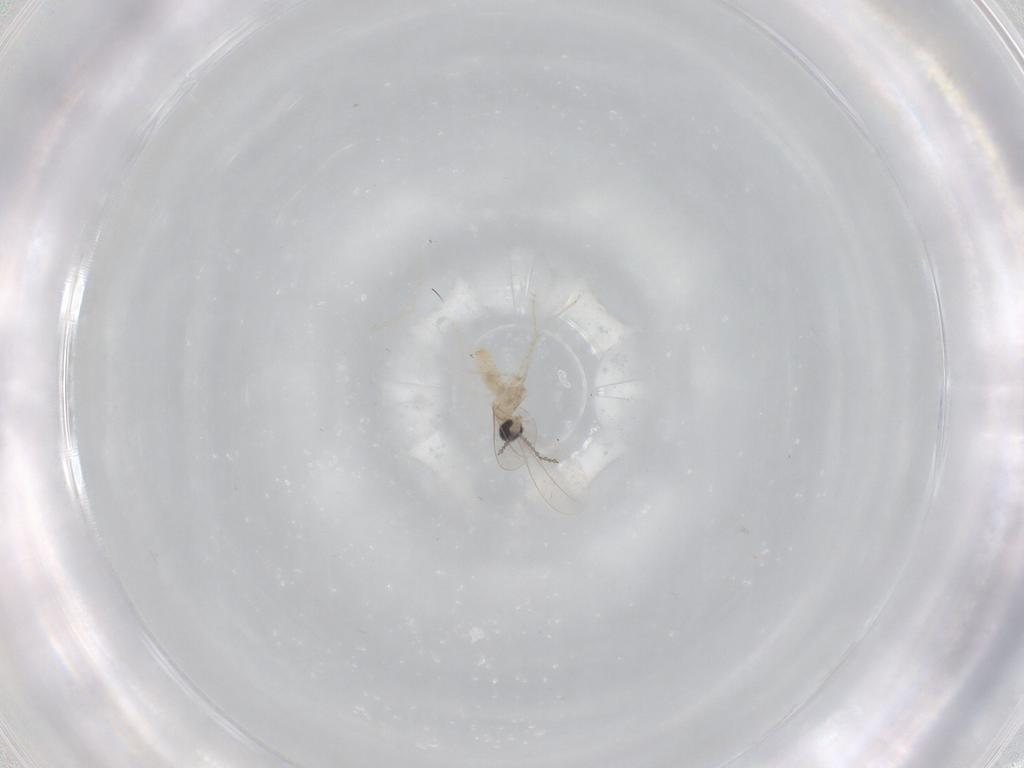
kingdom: Animalia
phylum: Arthropoda
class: Insecta
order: Diptera
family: Cecidomyiidae
